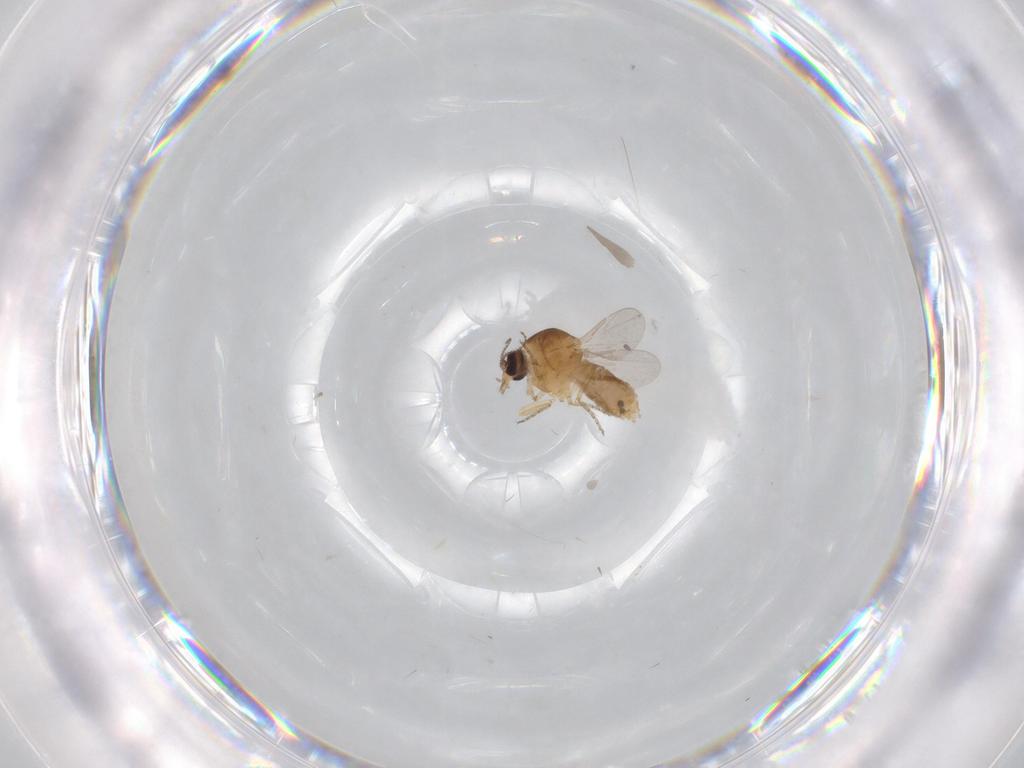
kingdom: Animalia
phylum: Arthropoda
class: Insecta
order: Diptera
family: Ceratopogonidae
